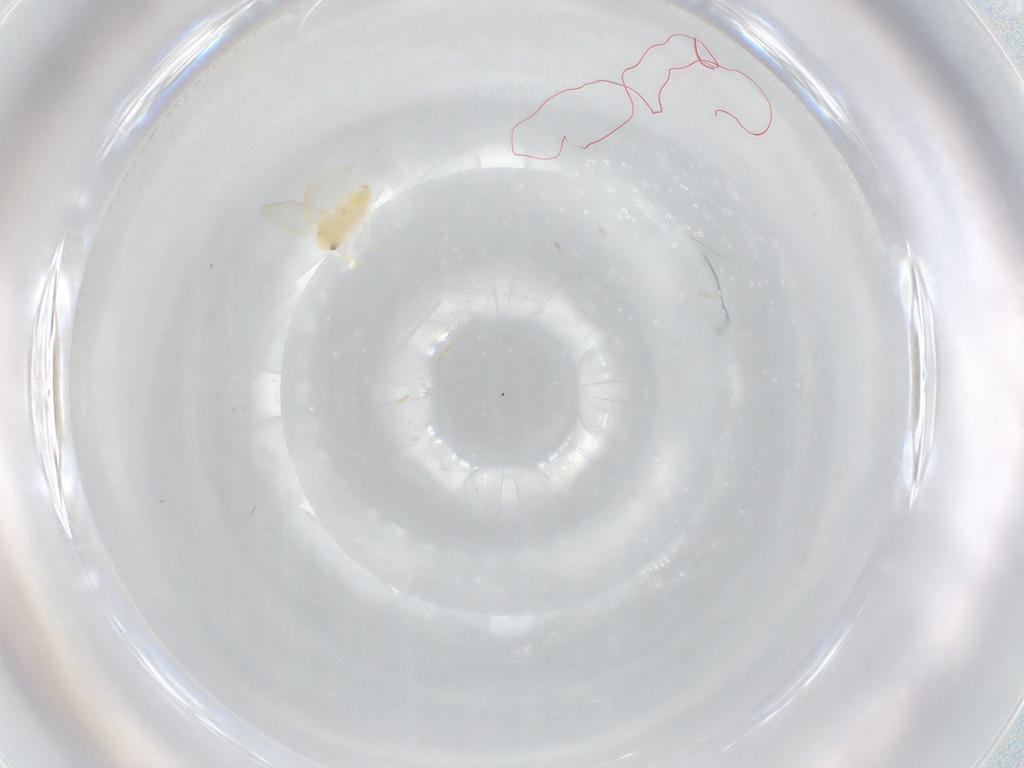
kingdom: Animalia
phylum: Arthropoda
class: Insecta
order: Hemiptera
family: Aleyrodidae
